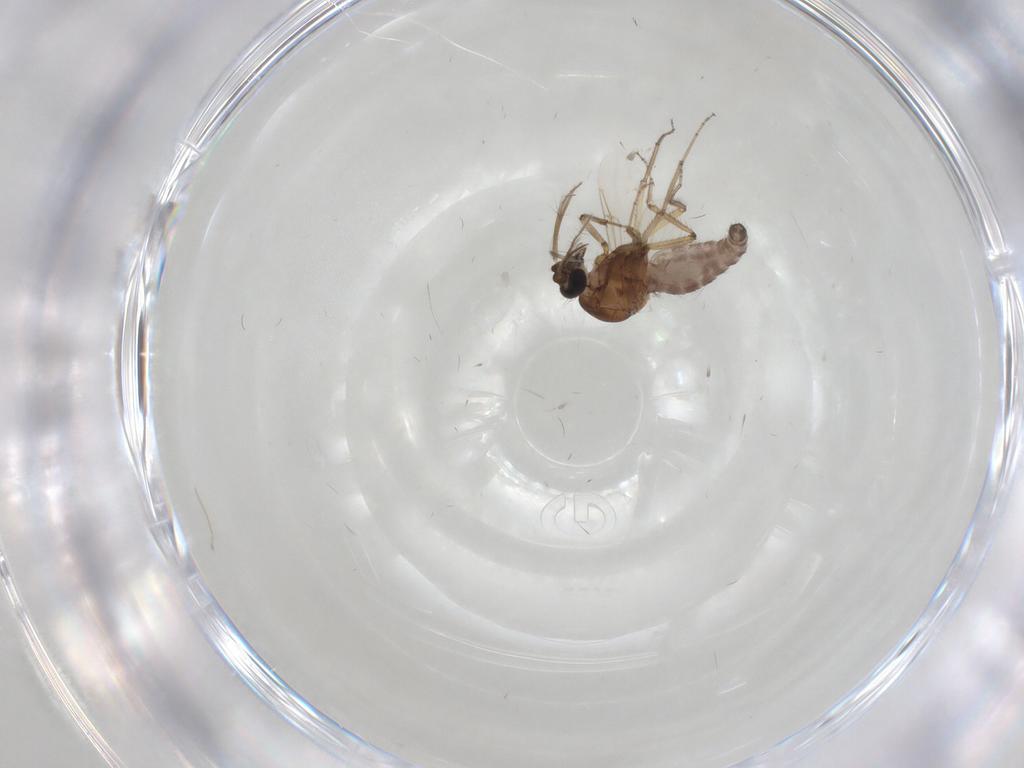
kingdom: Animalia
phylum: Arthropoda
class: Insecta
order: Diptera
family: Ceratopogonidae
